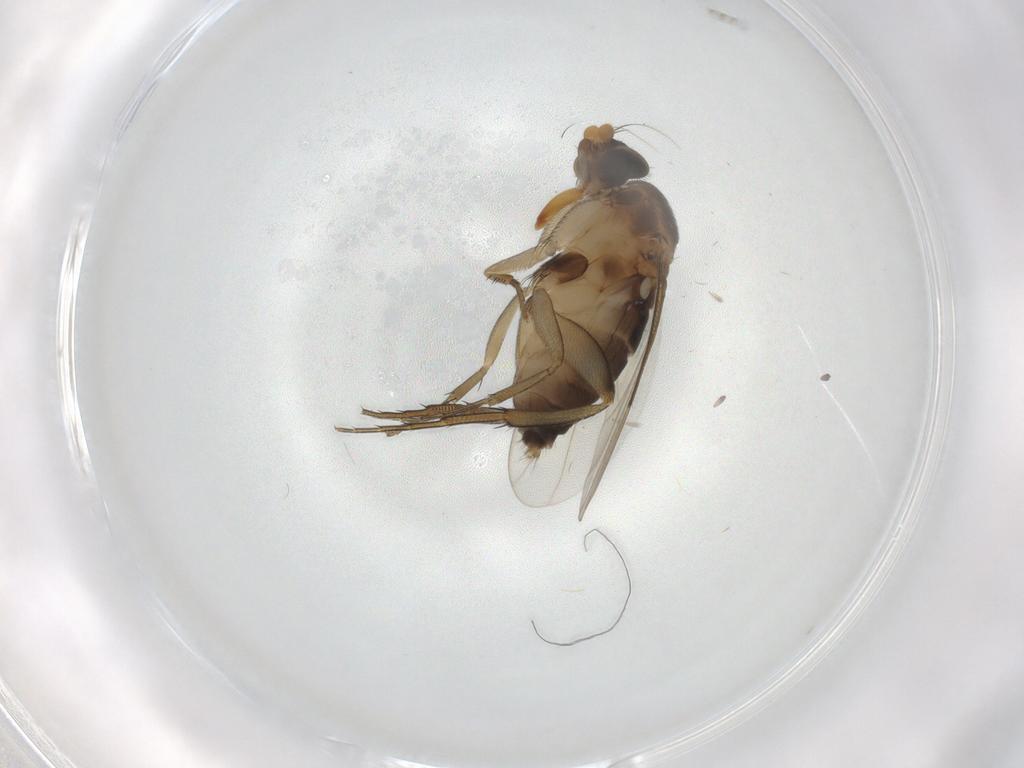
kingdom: Animalia
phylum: Arthropoda
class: Insecta
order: Diptera
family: Phoridae
